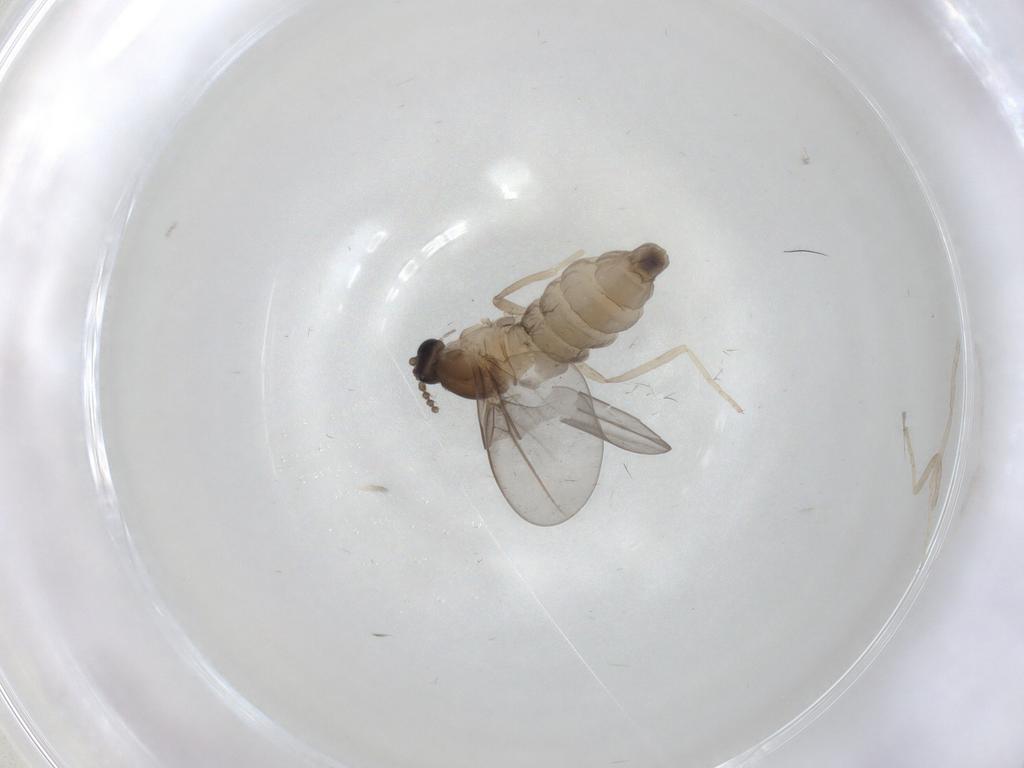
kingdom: Animalia
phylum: Arthropoda
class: Insecta
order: Diptera
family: Cecidomyiidae
